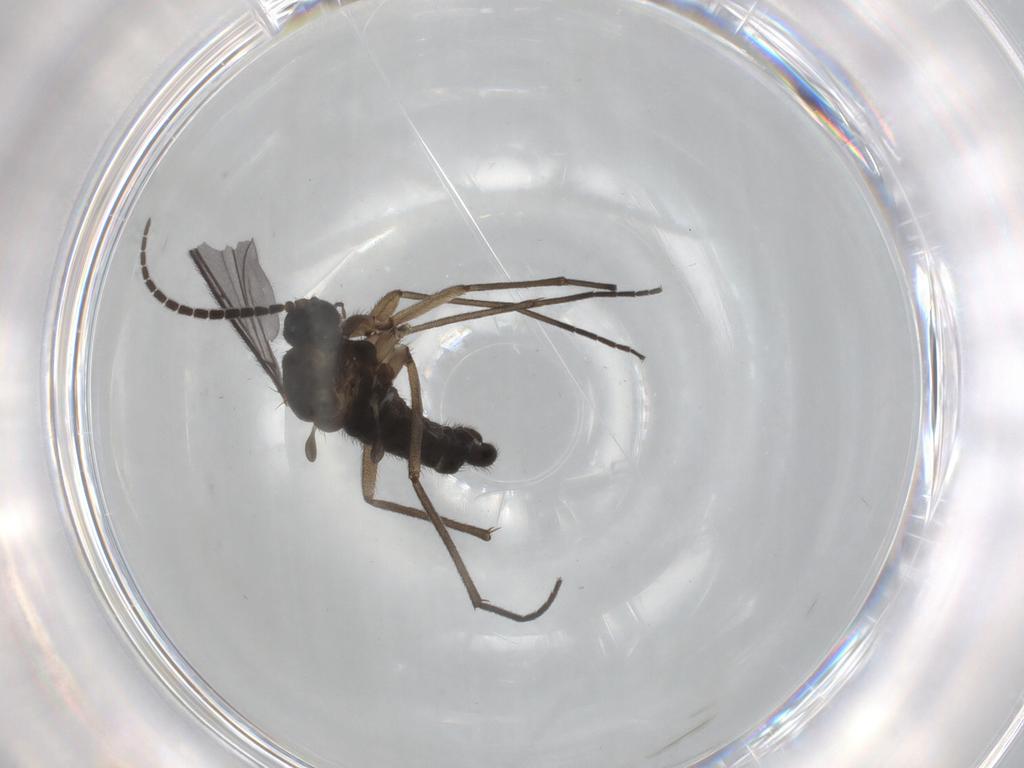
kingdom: Animalia
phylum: Arthropoda
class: Insecta
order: Diptera
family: Sciaridae
